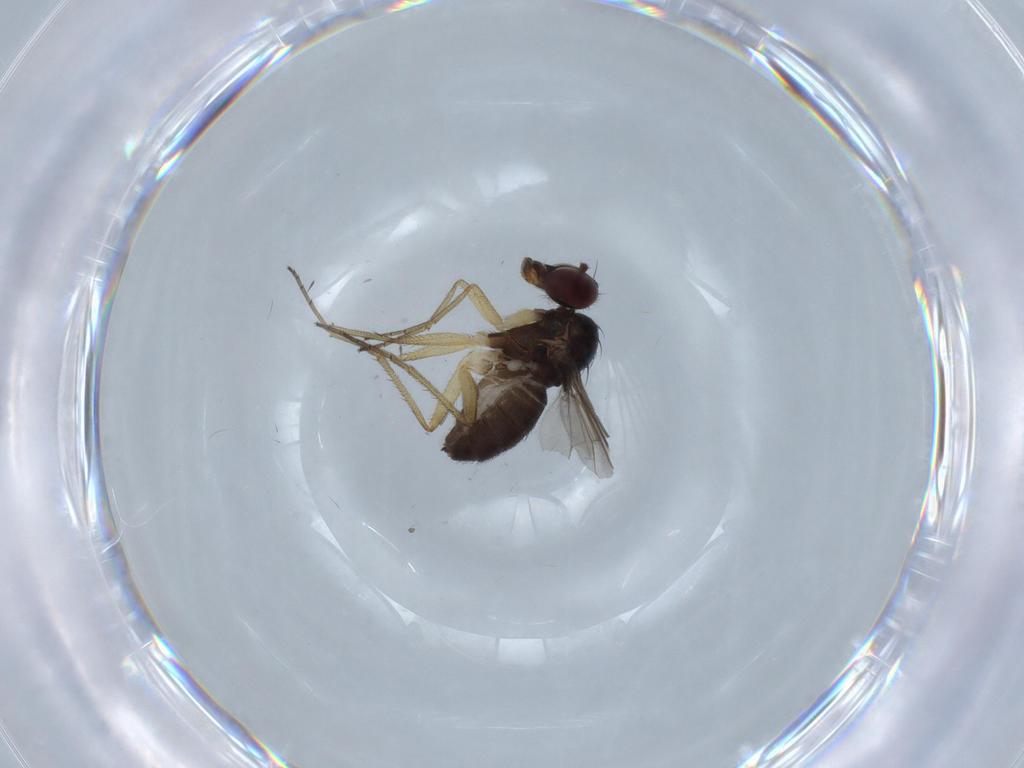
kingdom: Animalia
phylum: Arthropoda
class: Insecta
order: Diptera
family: Dolichopodidae
